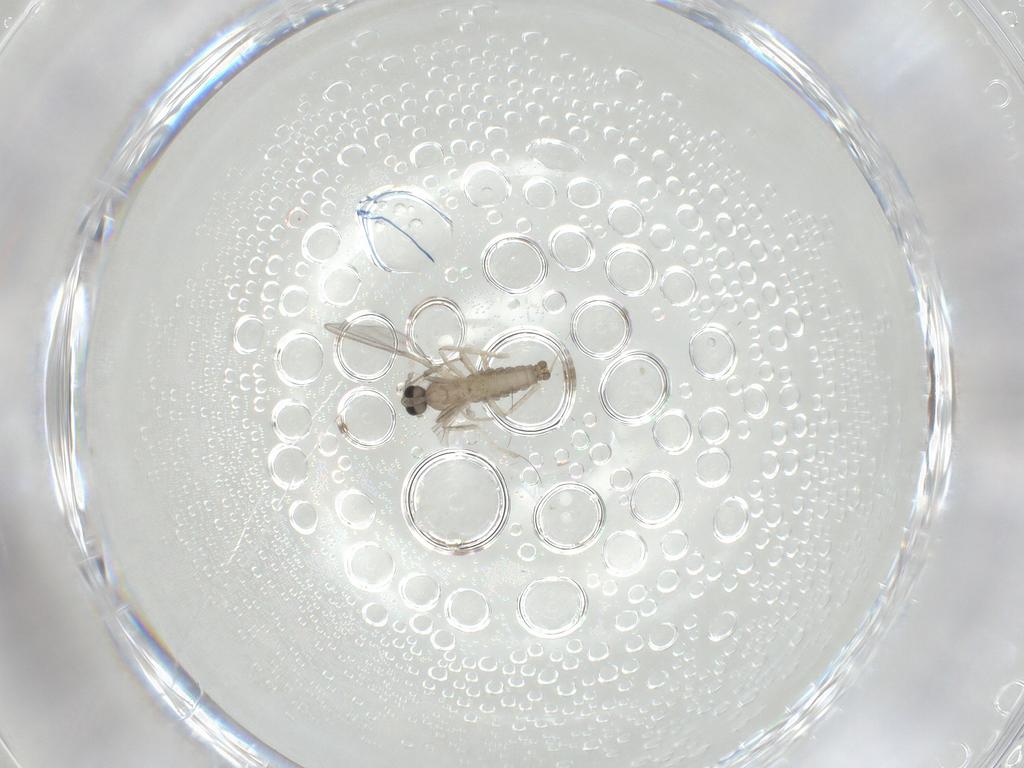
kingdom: Animalia
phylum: Arthropoda
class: Insecta
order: Diptera
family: Cecidomyiidae
